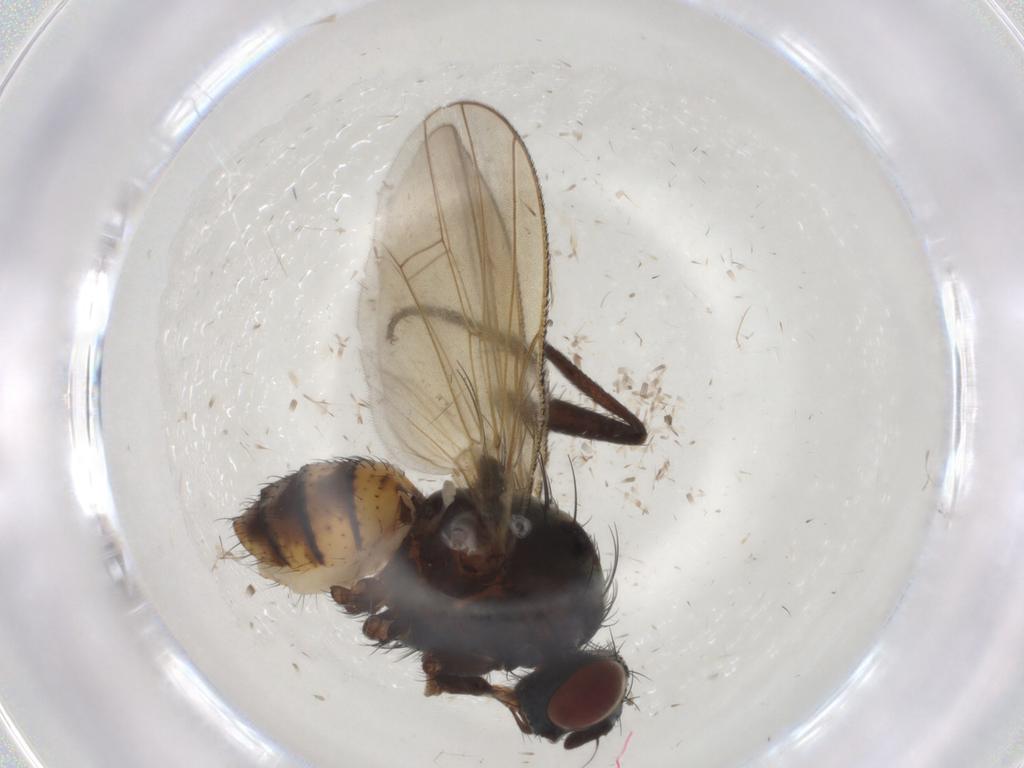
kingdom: Animalia
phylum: Arthropoda
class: Insecta
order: Diptera
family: Anthomyiidae
